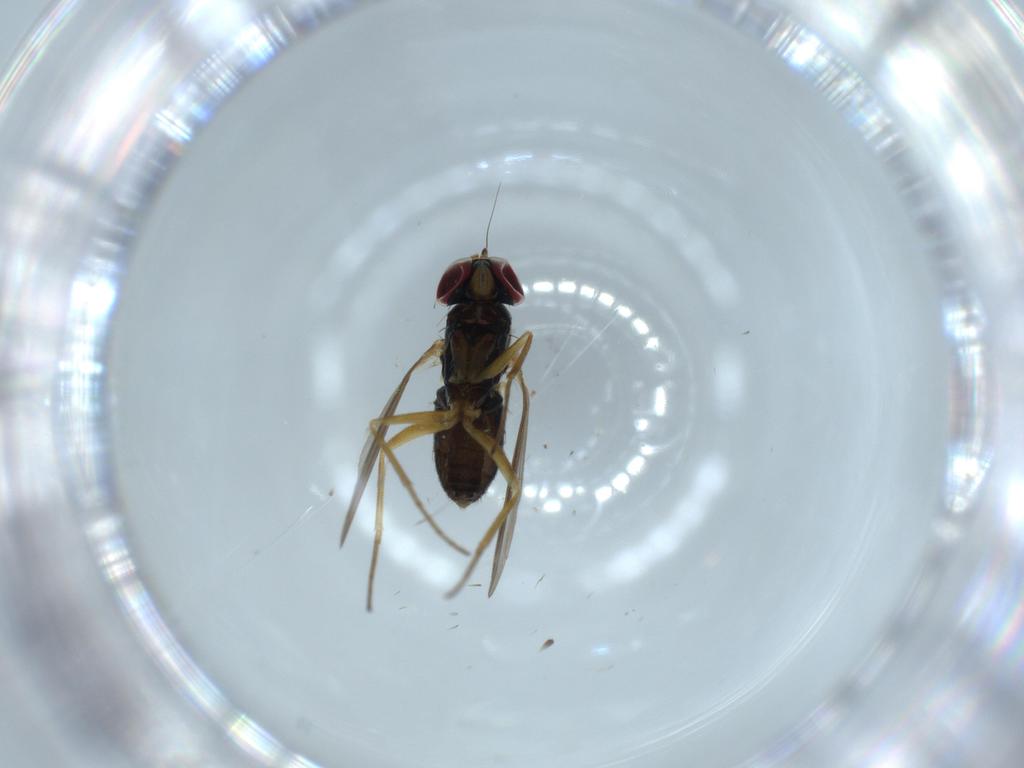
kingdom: Animalia
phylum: Arthropoda
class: Insecta
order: Diptera
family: Dolichopodidae
